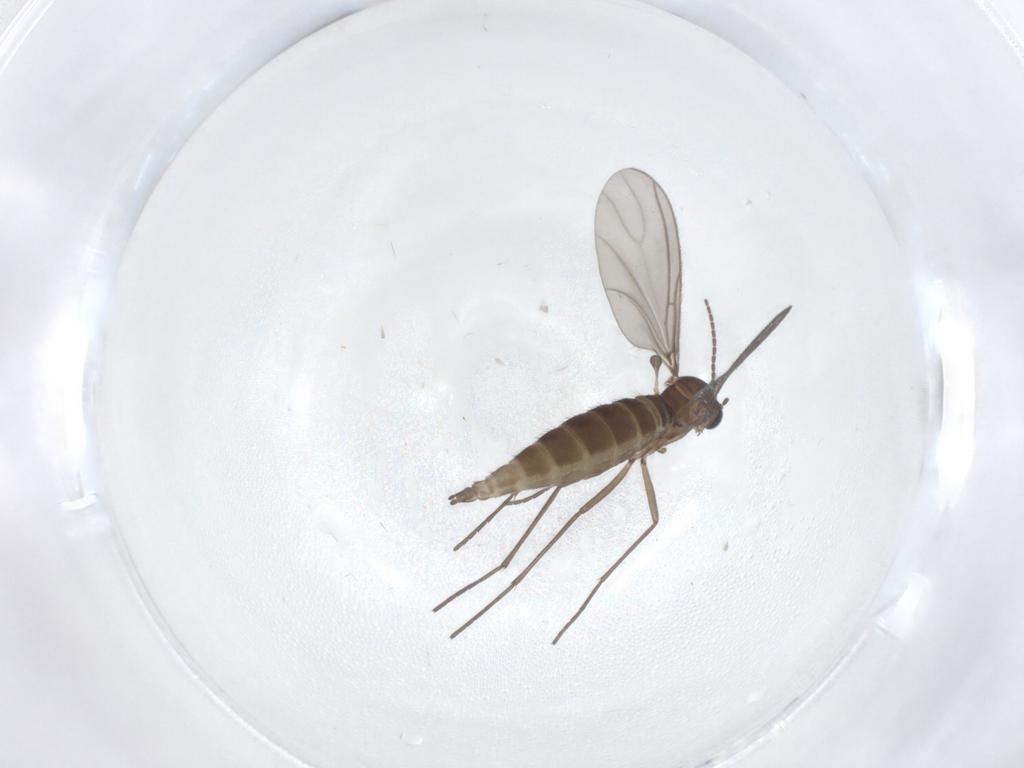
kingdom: Animalia
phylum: Arthropoda
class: Insecta
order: Diptera
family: Sciaridae
